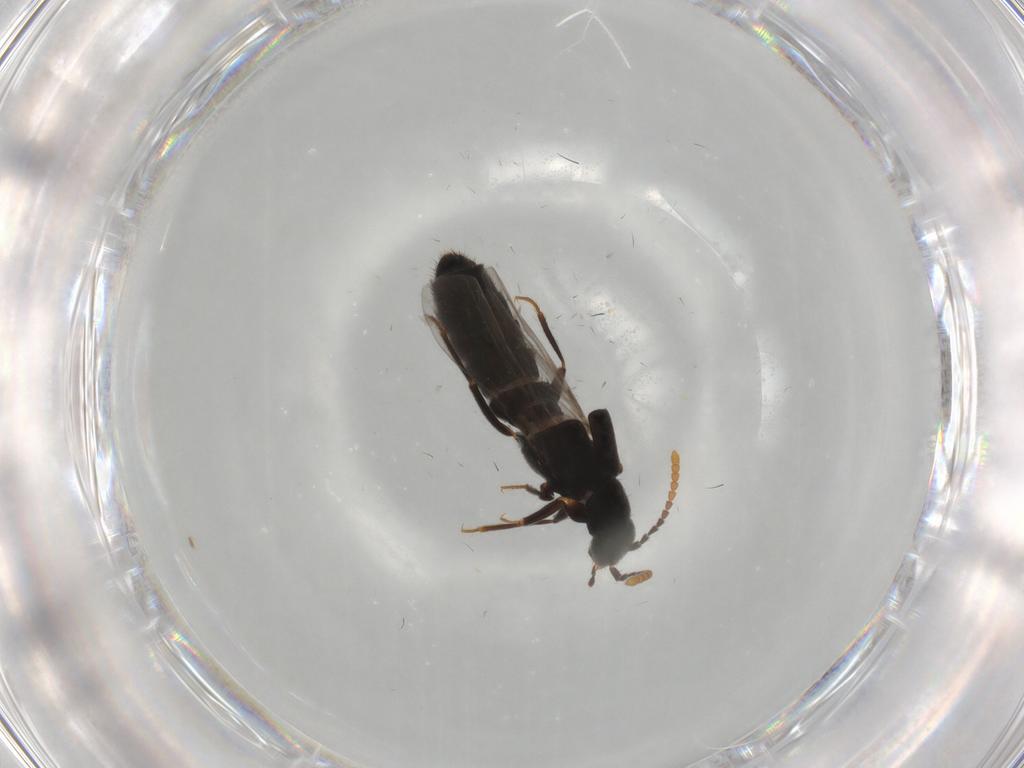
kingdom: Animalia
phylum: Arthropoda
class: Insecta
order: Coleoptera
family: Staphylinidae
